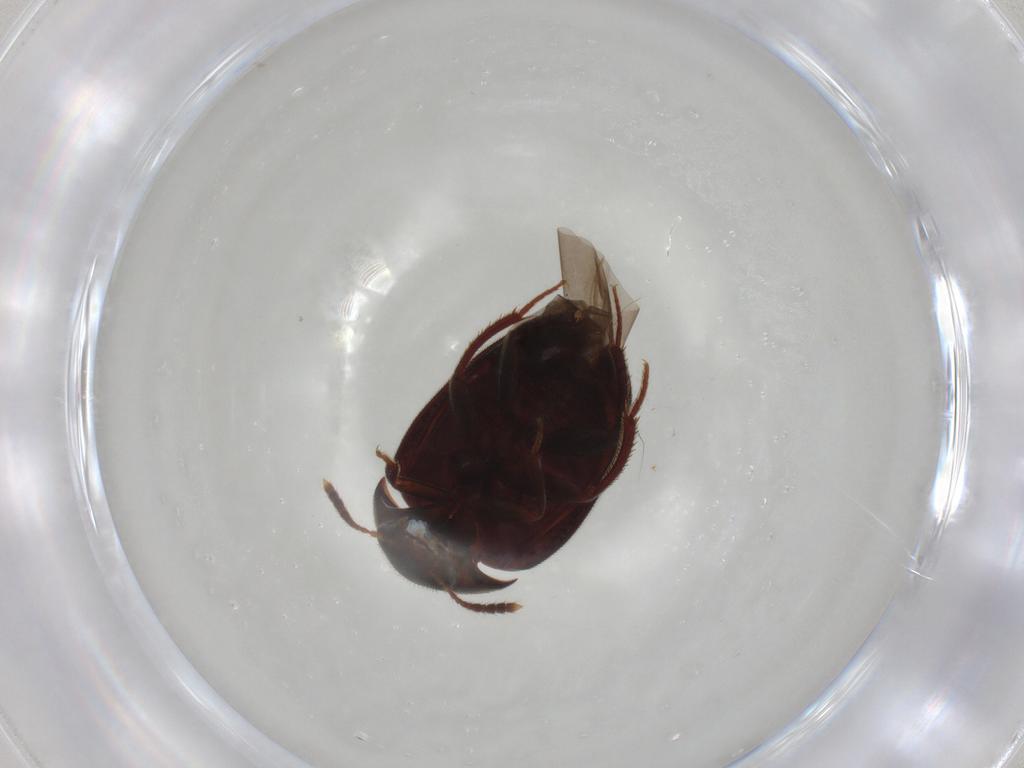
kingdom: Animalia
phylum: Arthropoda
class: Insecta
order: Coleoptera
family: Leiodidae
